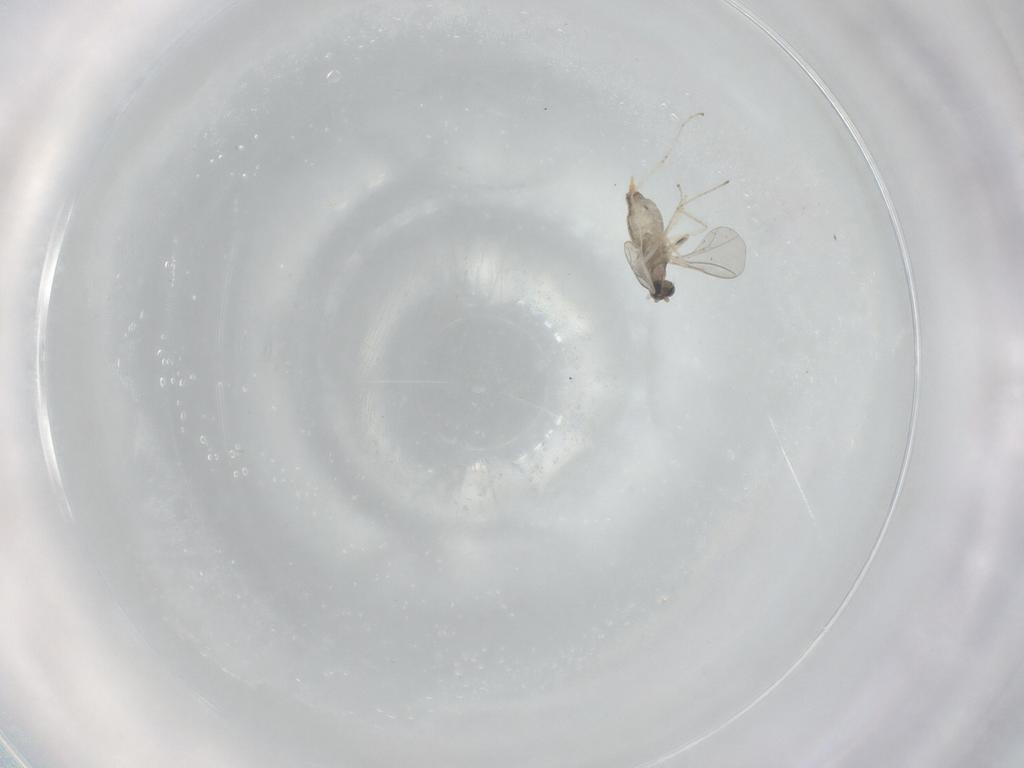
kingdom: Animalia
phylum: Arthropoda
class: Insecta
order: Diptera
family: Cecidomyiidae
